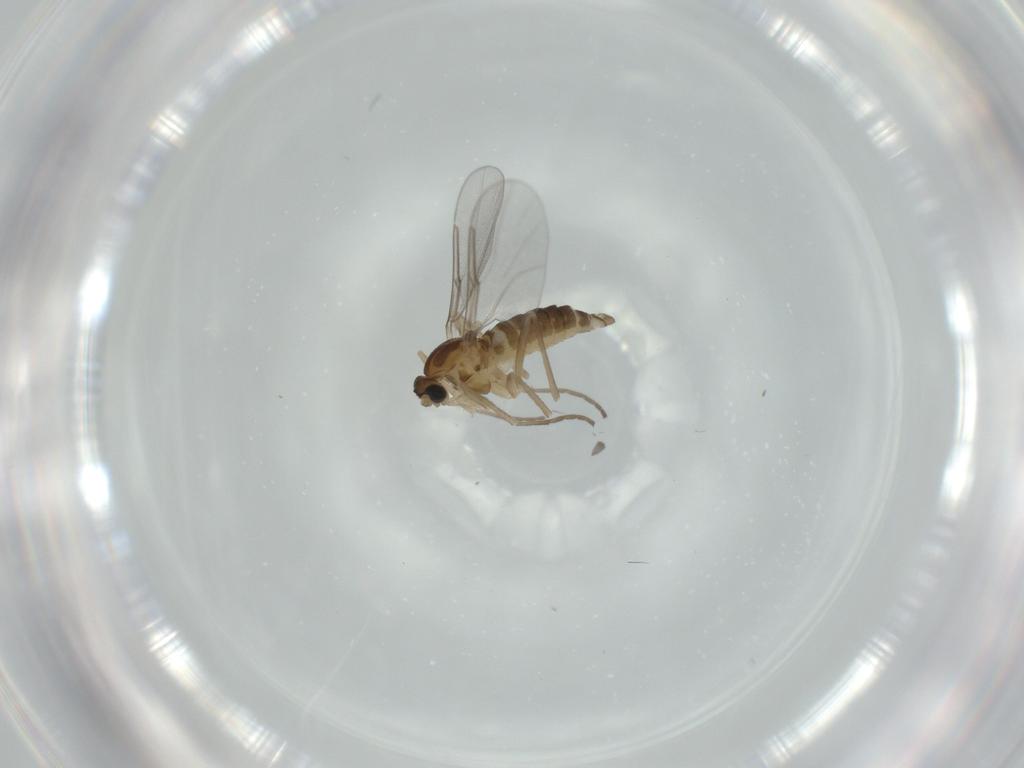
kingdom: Animalia
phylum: Arthropoda
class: Insecta
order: Diptera
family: Cecidomyiidae
